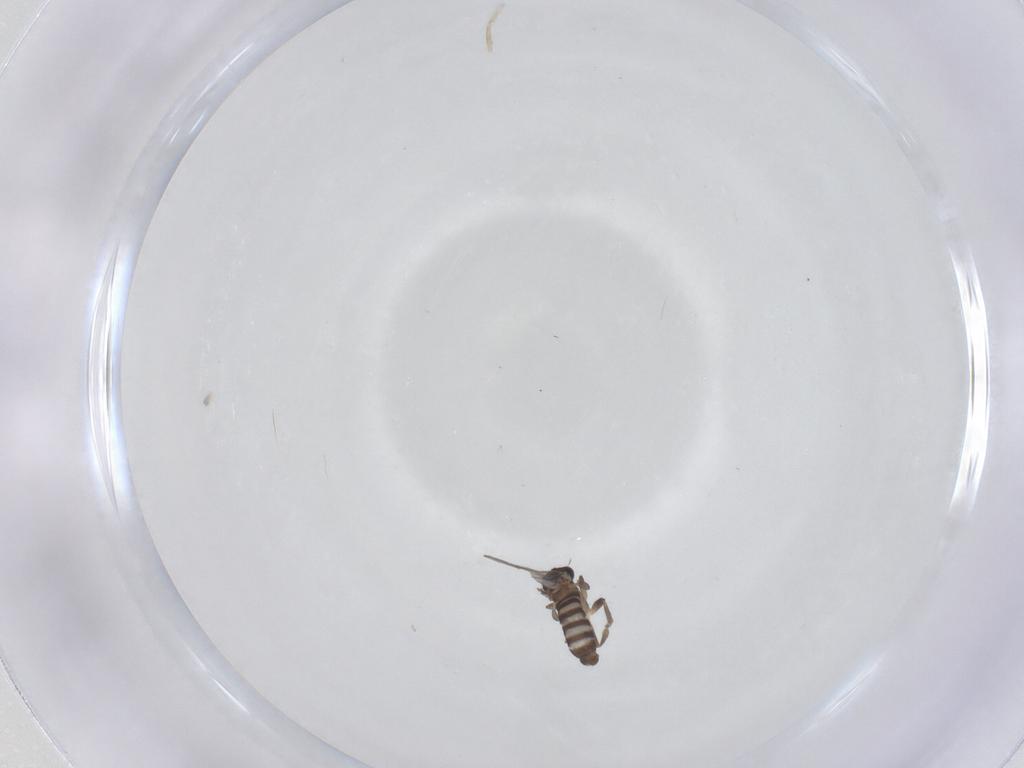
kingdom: Animalia
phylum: Arthropoda
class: Insecta
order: Diptera
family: Phoridae
